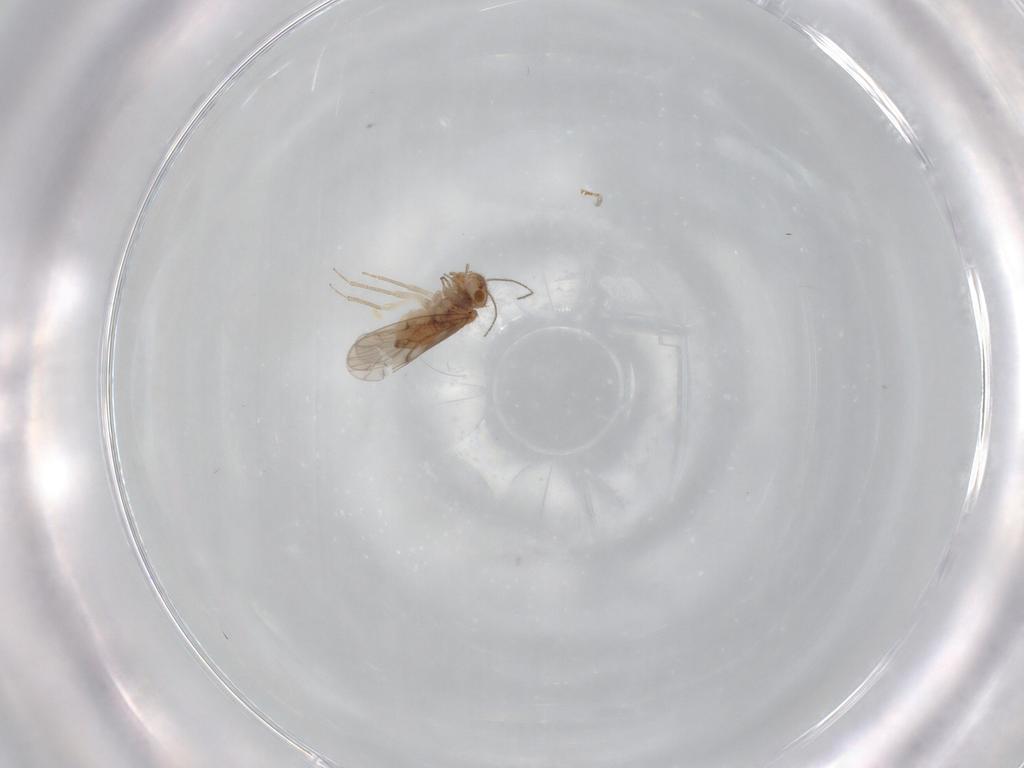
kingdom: Animalia
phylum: Arthropoda
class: Insecta
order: Psocodea
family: Ectopsocidae
